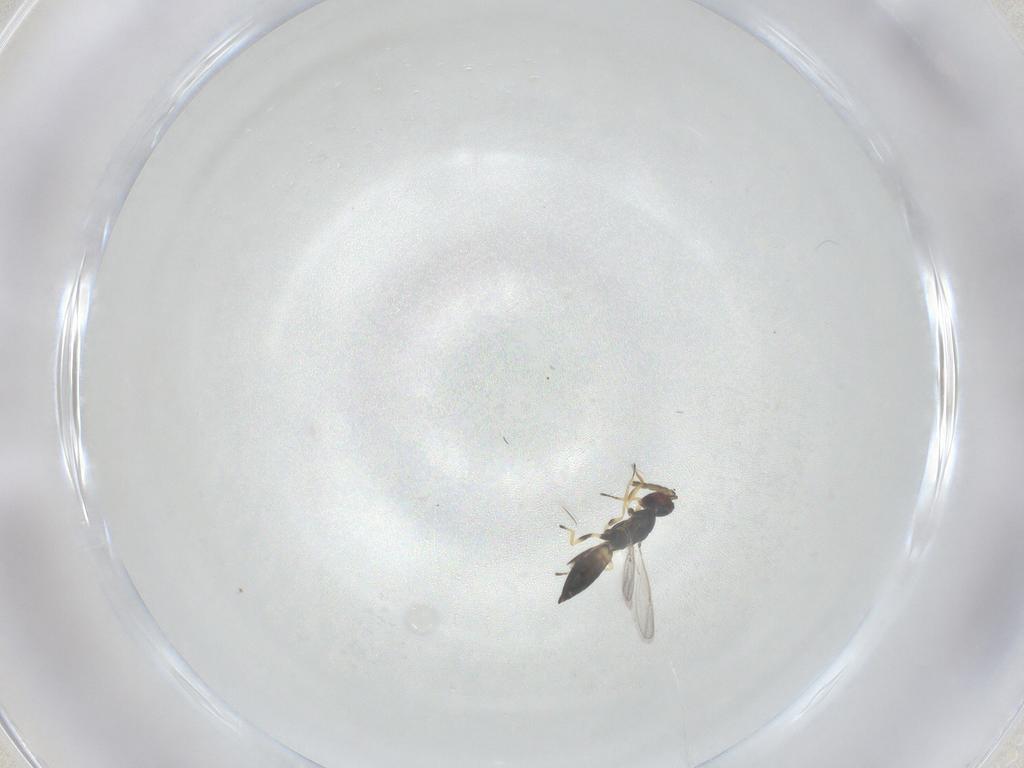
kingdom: Animalia
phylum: Arthropoda
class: Insecta
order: Hymenoptera
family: Eulophidae
